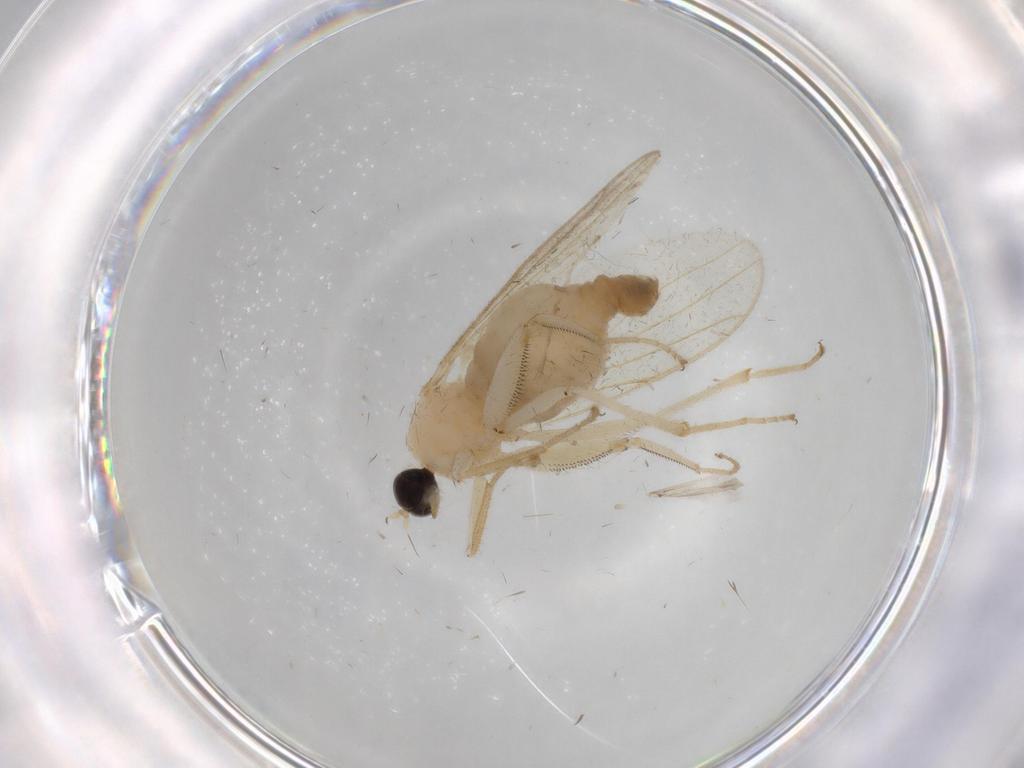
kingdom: Animalia
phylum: Arthropoda
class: Insecta
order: Diptera
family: Hybotidae
